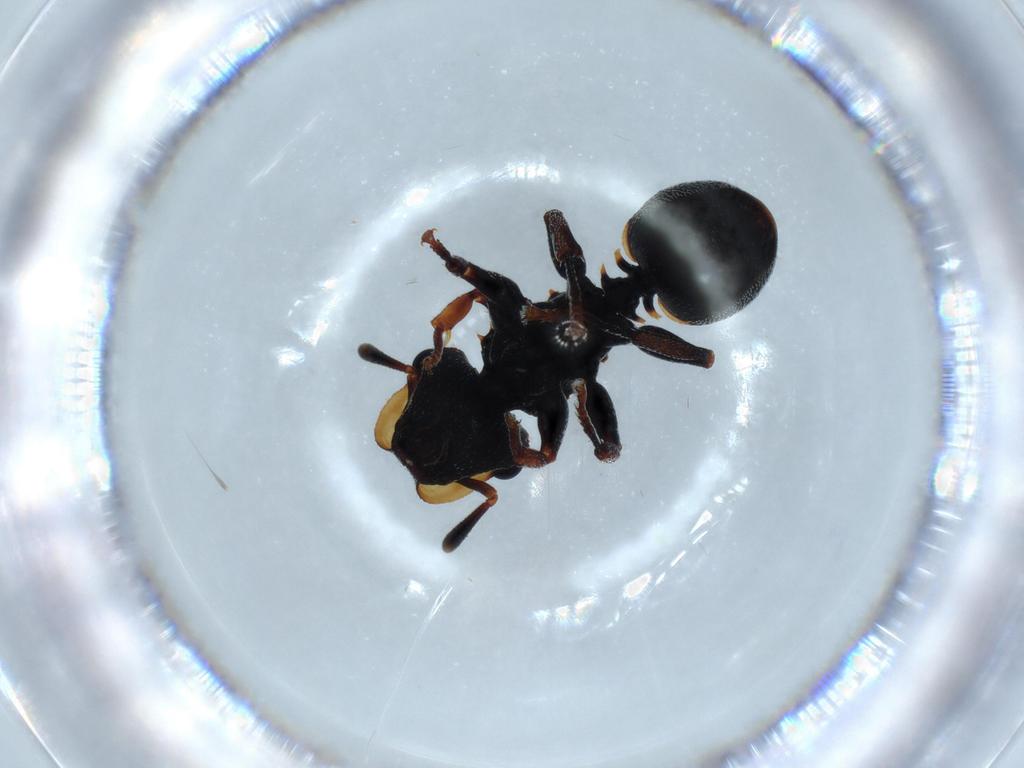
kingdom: Animalia
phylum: Arthropoda
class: Insecta
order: Hymenoptera
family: Formicidae
